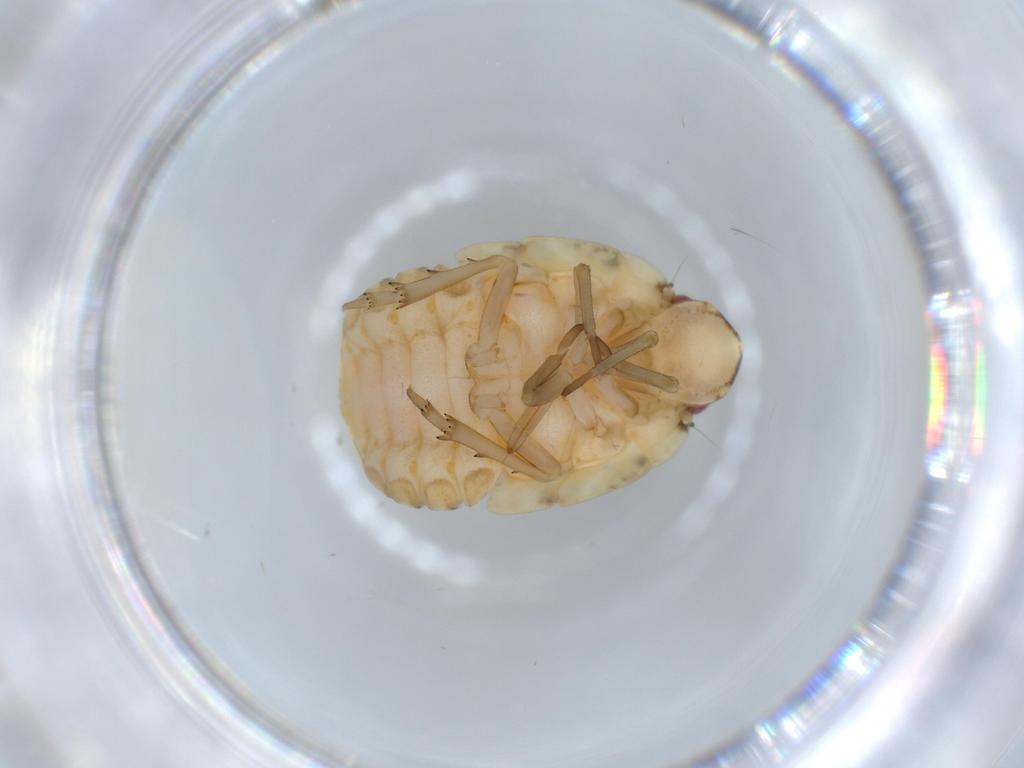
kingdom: Animalia
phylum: Arthropoda
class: Insecta
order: Hemiptera
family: Flatidae
